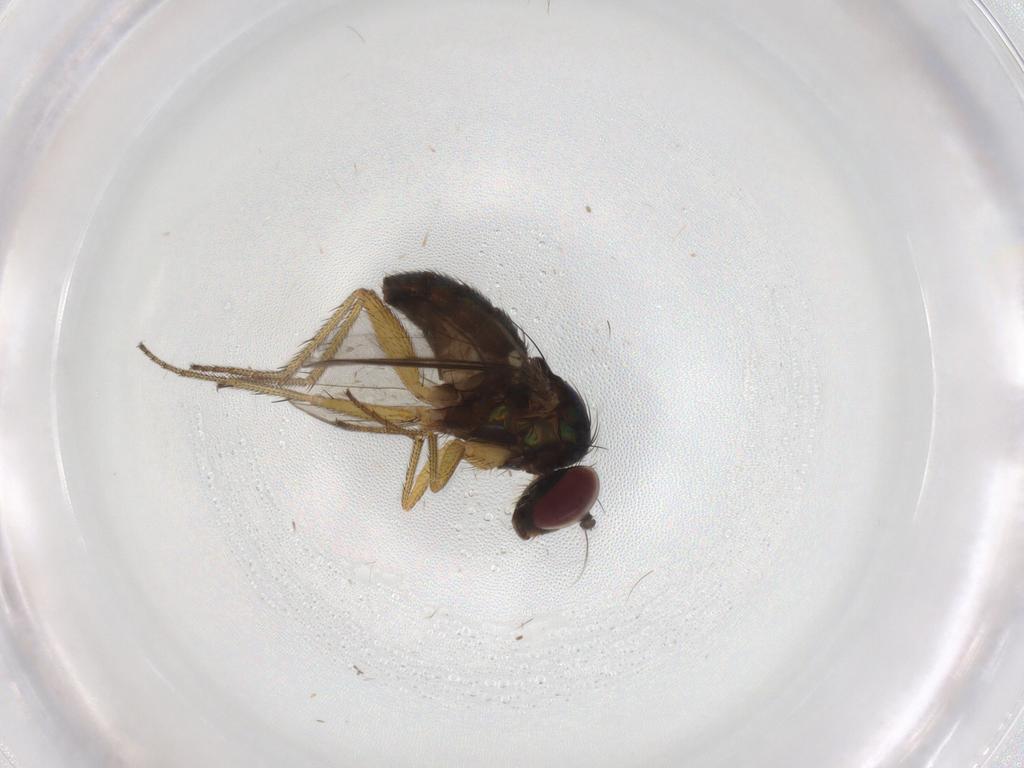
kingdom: Animalia
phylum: Arthropoda
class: Insecta
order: Diptera
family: Dolichopodidae
